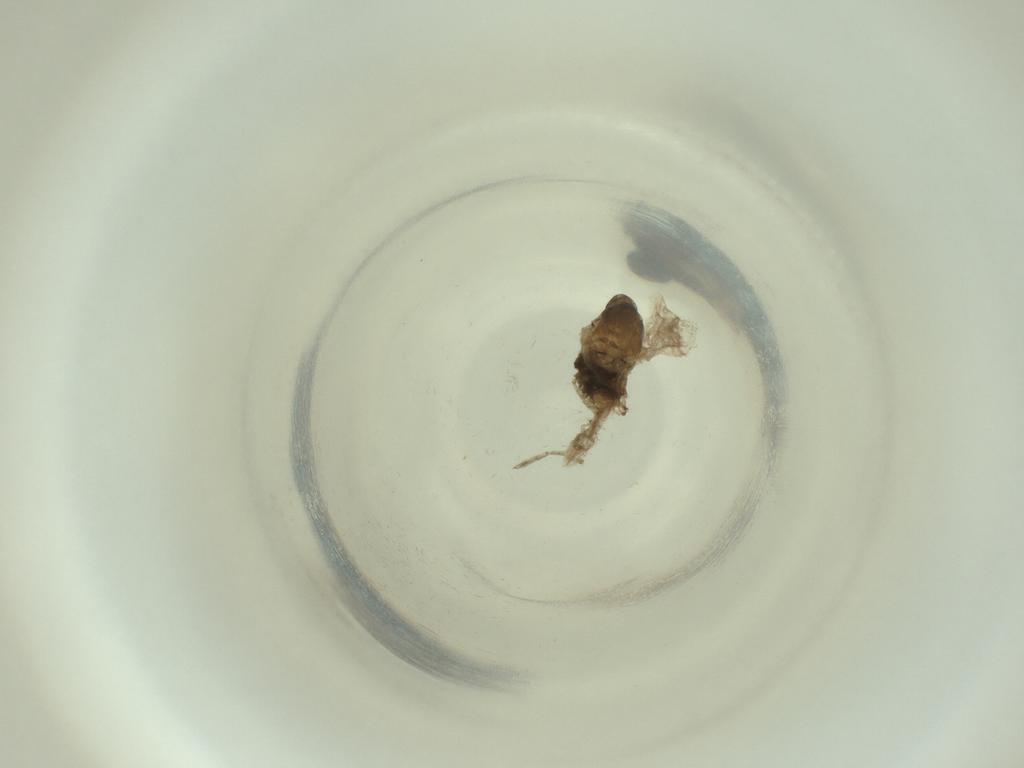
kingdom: Animalia
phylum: Arthropoda
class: Insecta
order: Diptera
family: Cecidomyiidae
